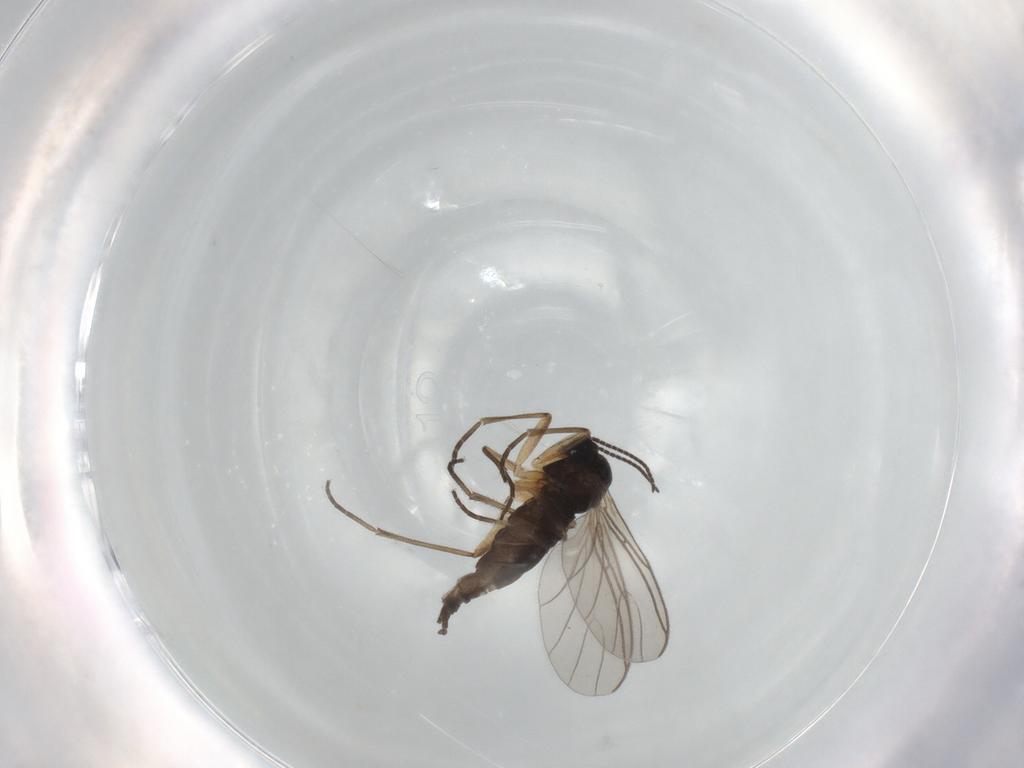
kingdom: Animalia
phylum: Arthropoda
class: Insecta
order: Diptera
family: Sciaridae
